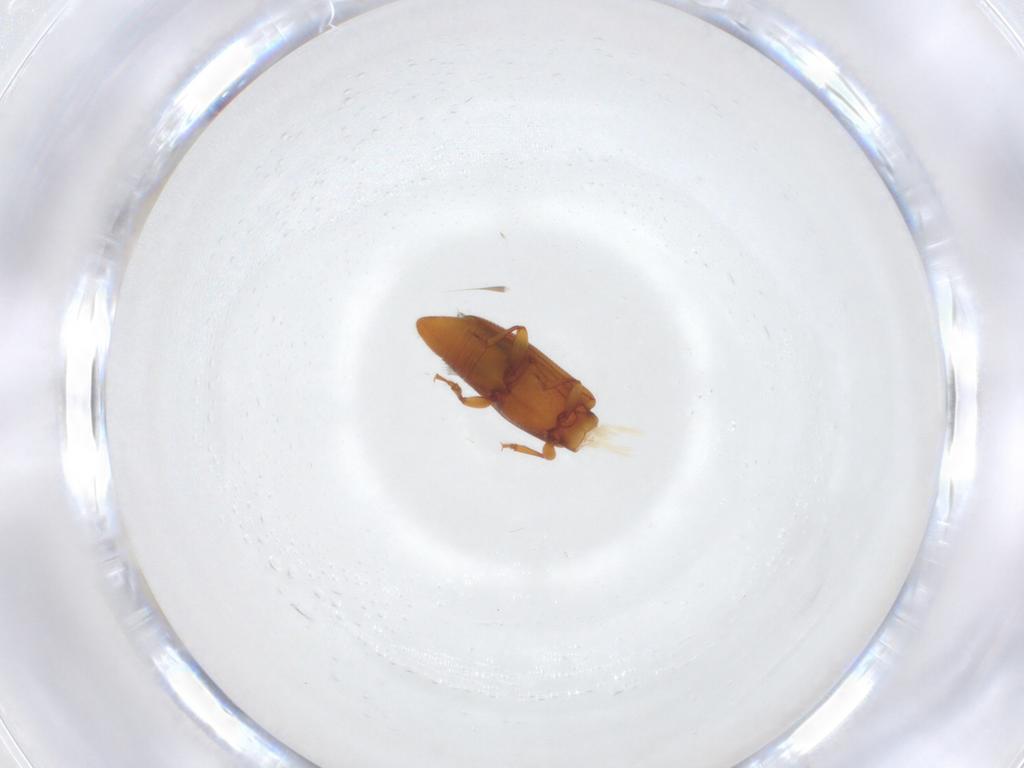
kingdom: Animalia
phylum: Arthropoda
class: Insecta
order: Coleoptera
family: Monotomidae
